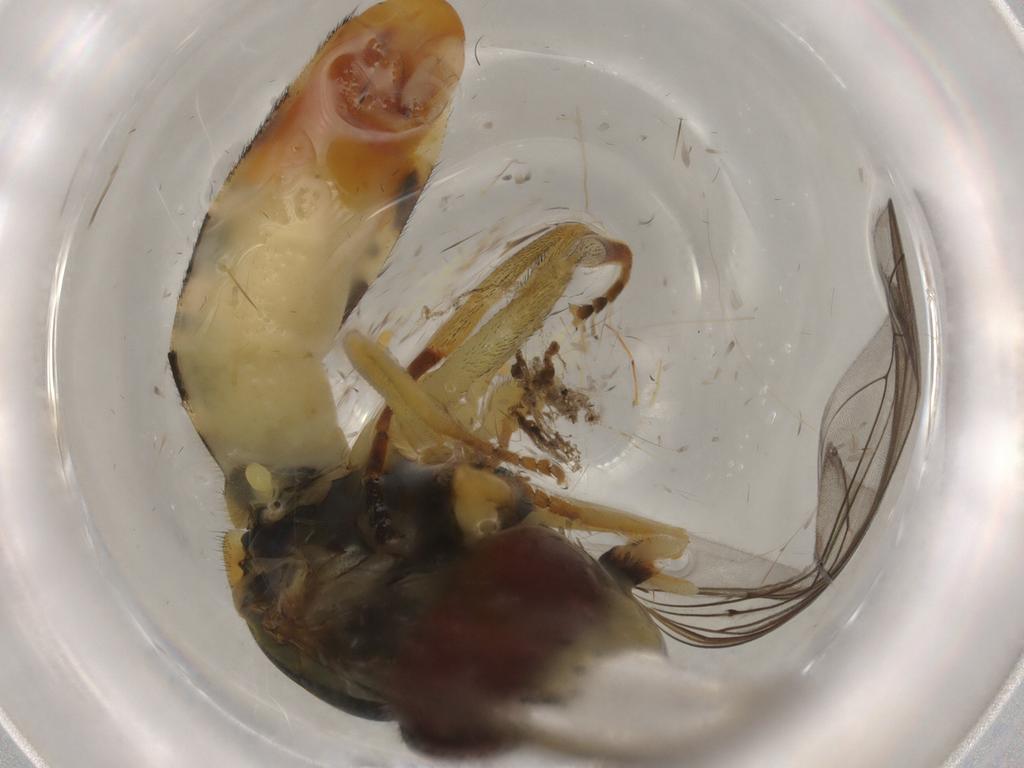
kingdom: Animalia
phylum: Arthropoda
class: Insecta
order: Diptera
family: Syrphidae
